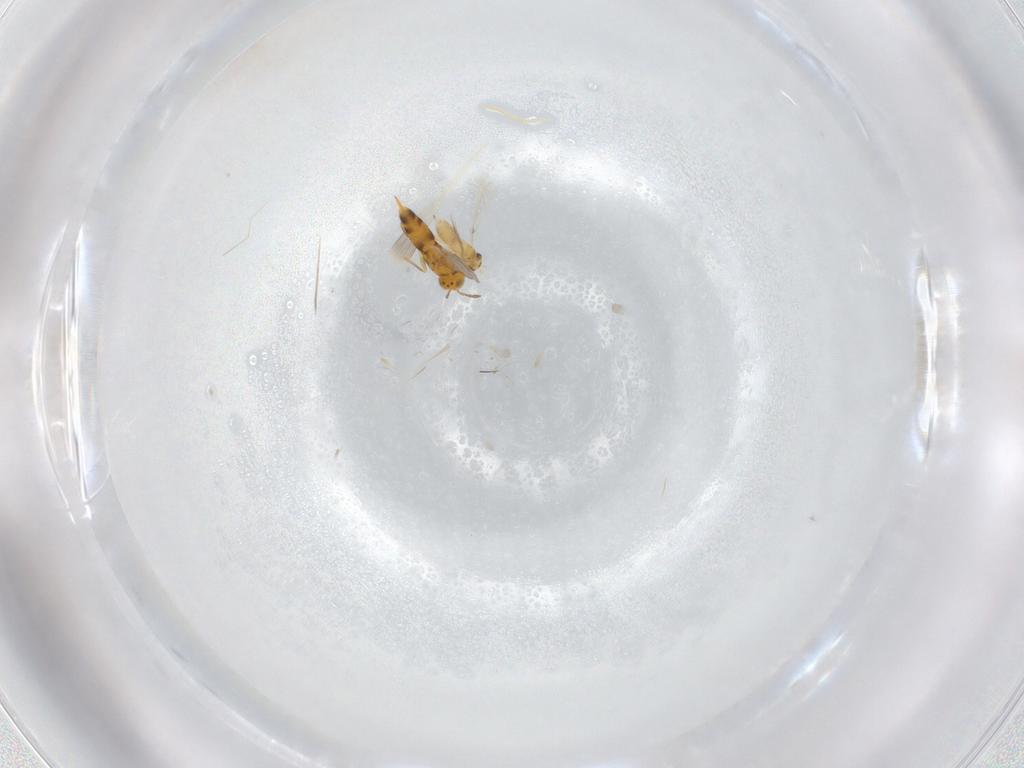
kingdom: Animalia
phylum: Arthropoda
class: Insecta
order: Hymenoptera
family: Aphelinidae
